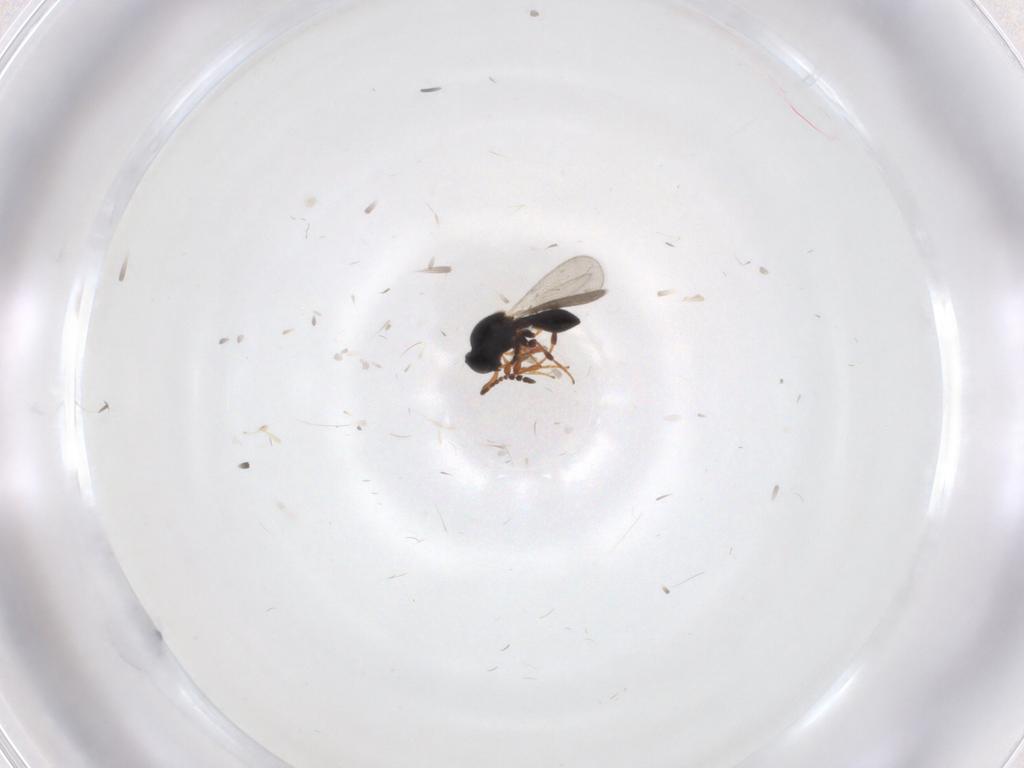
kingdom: Animalia
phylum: Arthropoda
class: Insecta
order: Hymenoptera
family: Platygastridae
